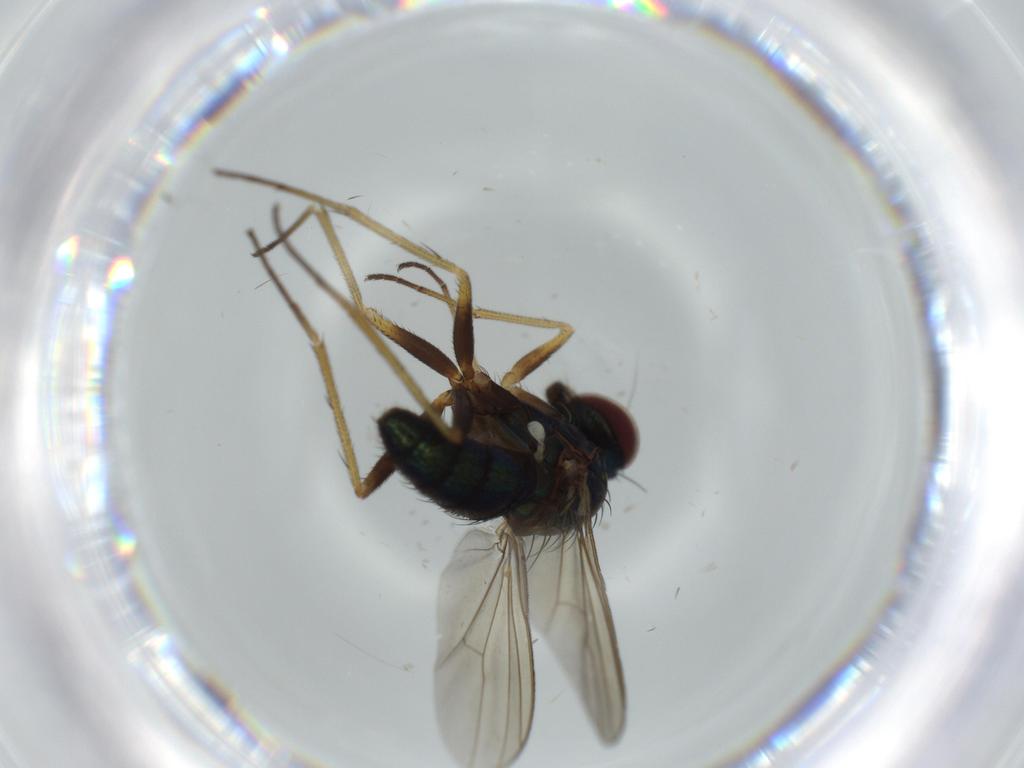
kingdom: Animalia
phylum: Arthropoda
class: Insecta
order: Diptera
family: Dolichopodidae
